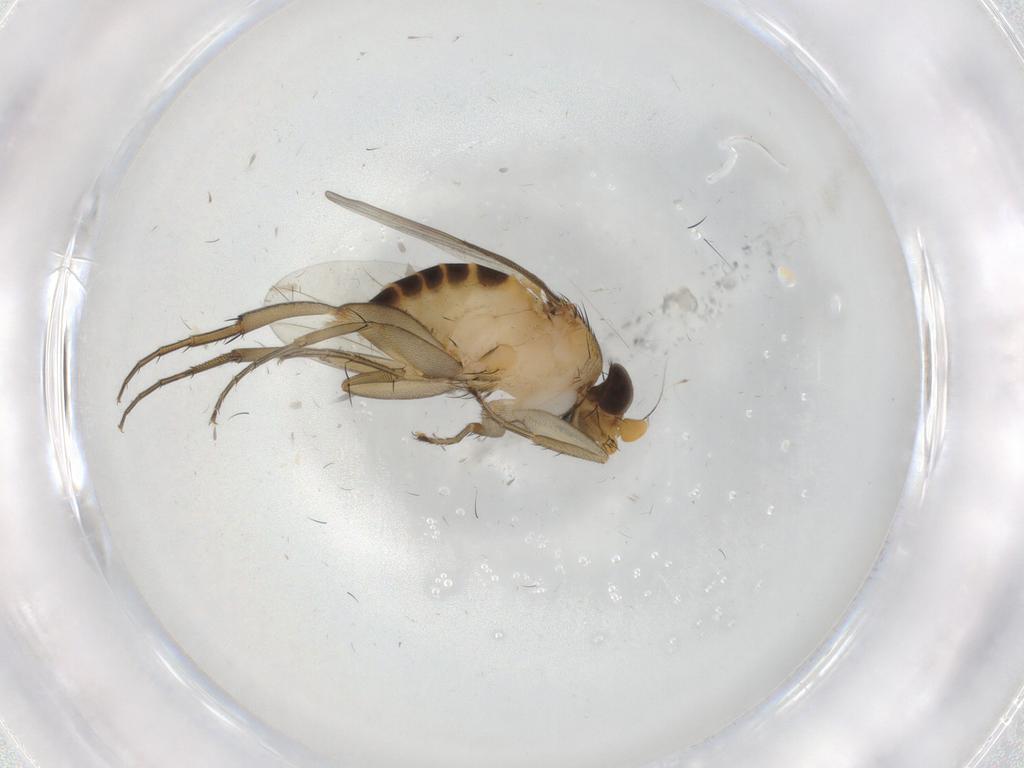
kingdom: Animalia
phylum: Arthropoda
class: Insecta
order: Diptera
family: Phoridae
